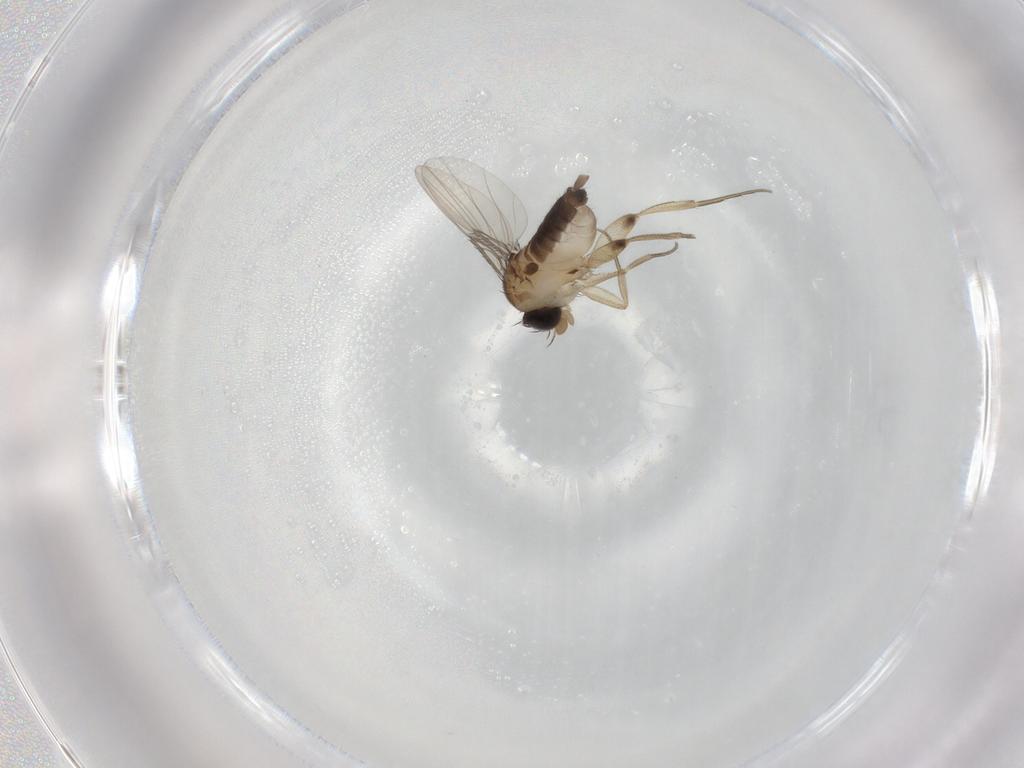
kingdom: Animalia
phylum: Arthropoda
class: Insecta
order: Diptera
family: Phoridae
